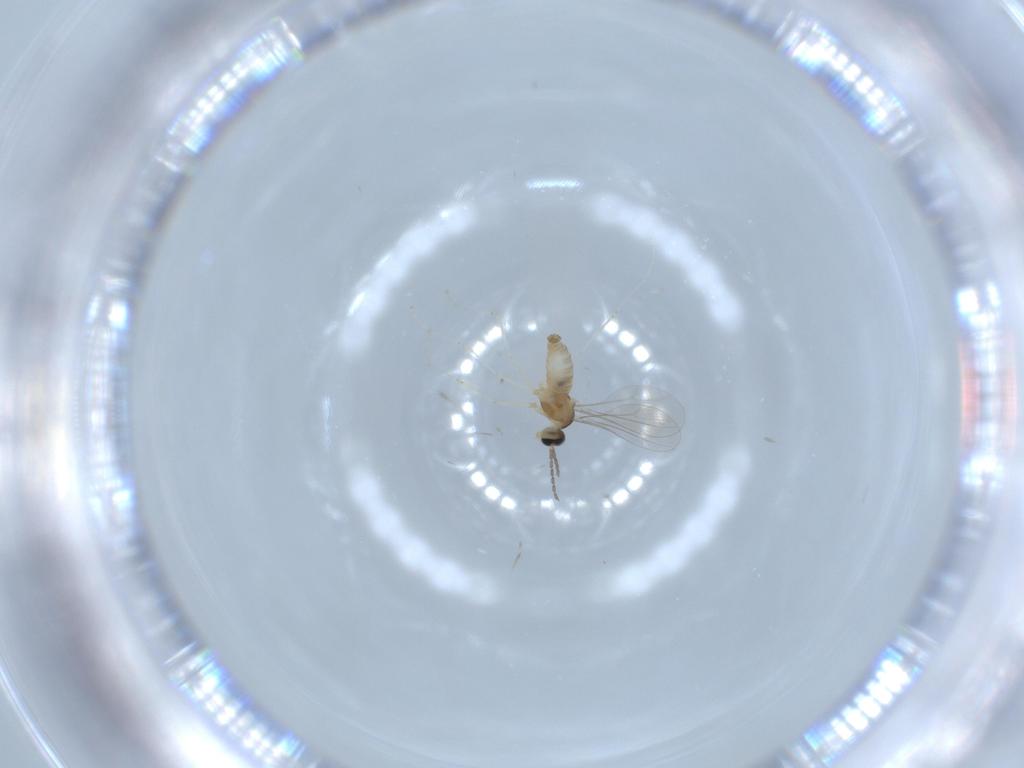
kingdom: Animalia
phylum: Arthropoda
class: Insecta
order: Diptera
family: Cecidomyiidae
